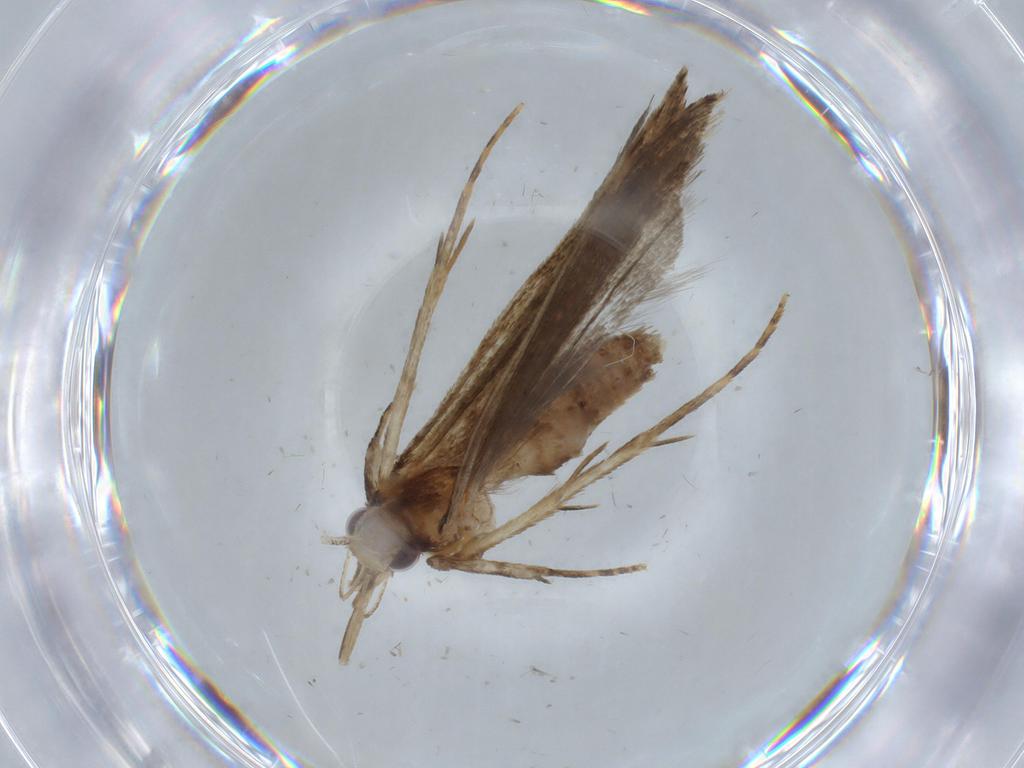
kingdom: Animalia
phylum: Arthropoda
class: Insecta
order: Lepidoptera
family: Gelechiidae
